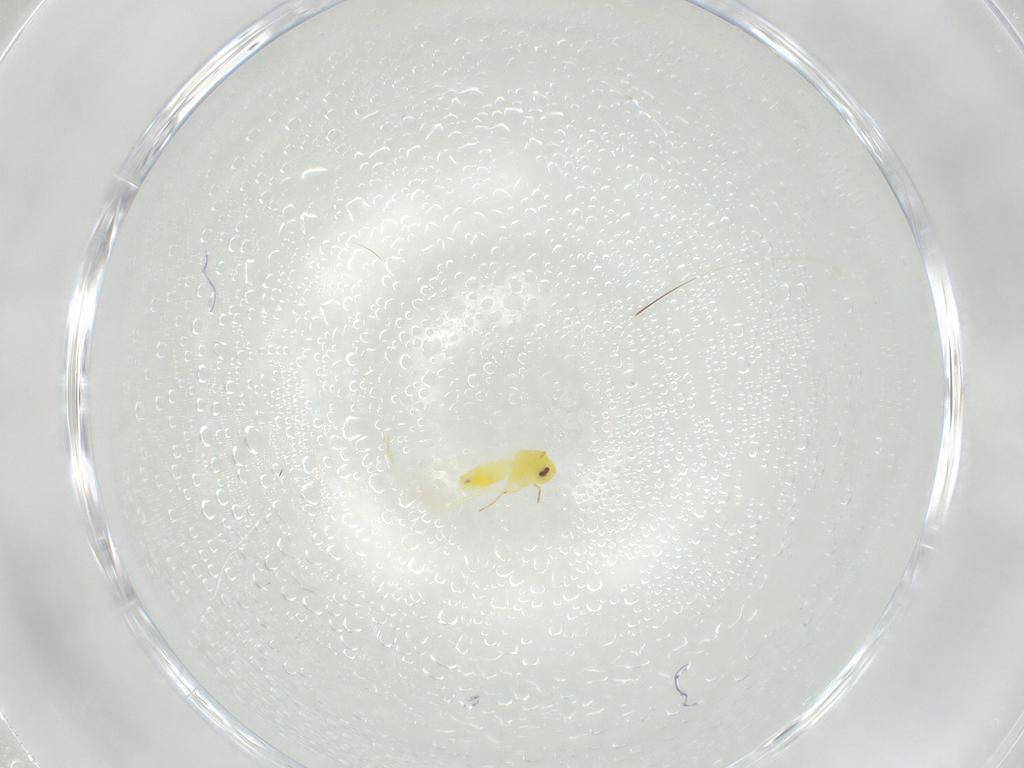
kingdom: Animalia
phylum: Arthropoda
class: Insecta
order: Hemiptera
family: Aleyrodidae
